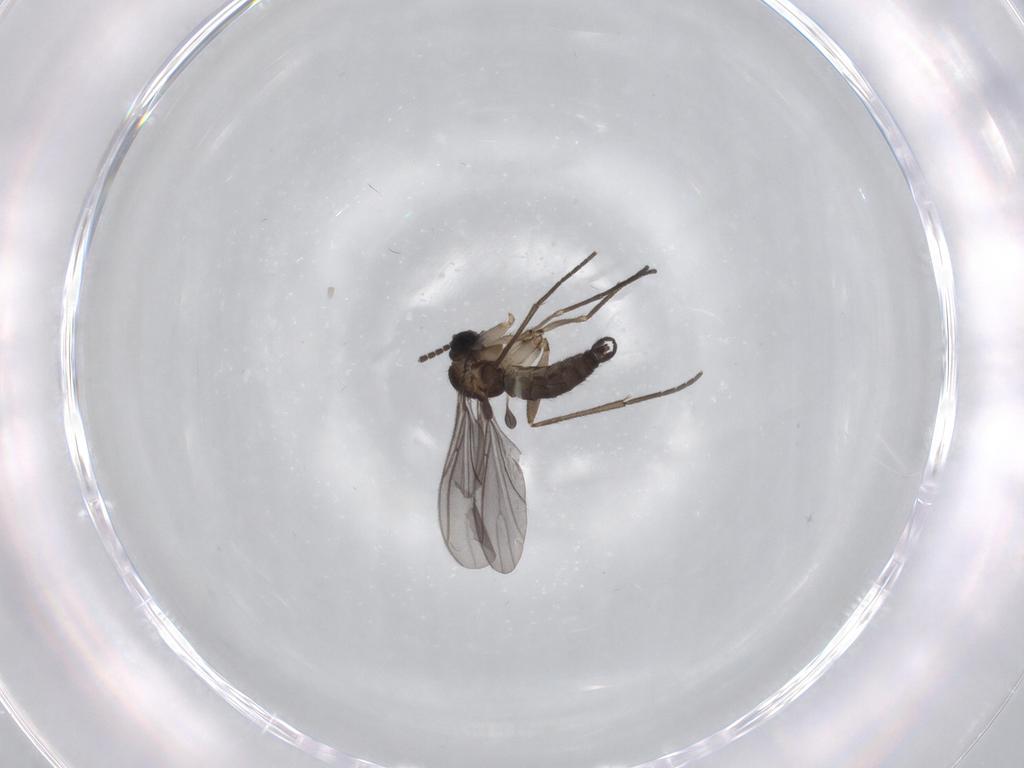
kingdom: Animalia
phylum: Arthropoda
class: Insecta
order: Diptera
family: Sciaridae
